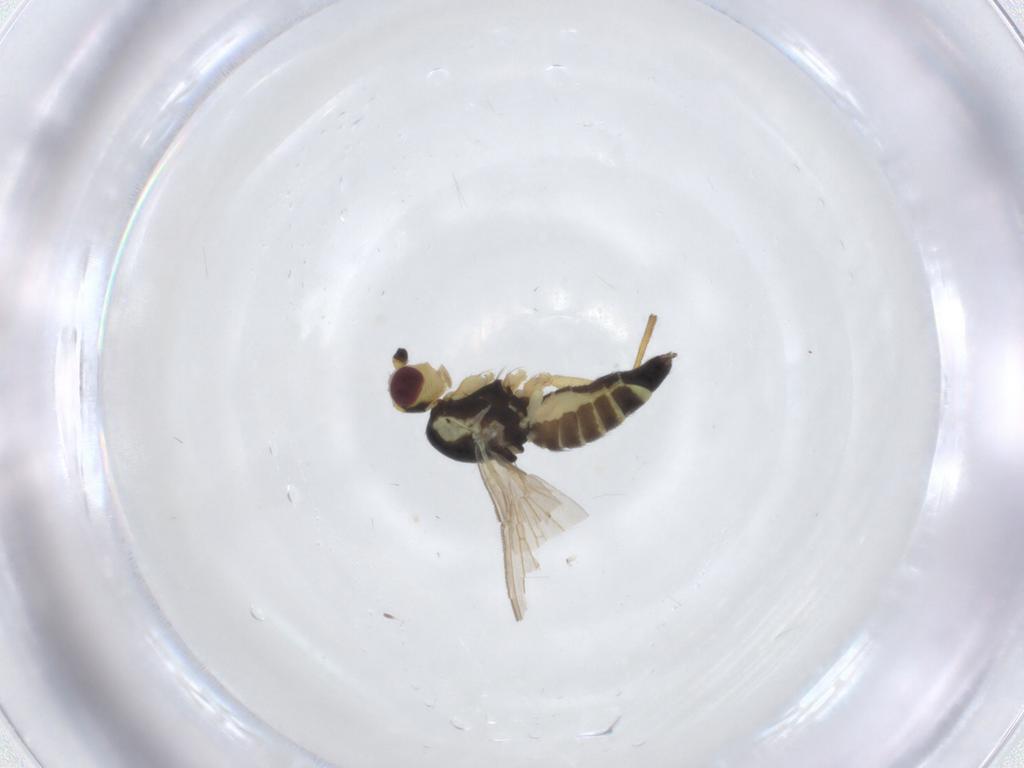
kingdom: Animalia
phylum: Arthropoda
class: Insecta
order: Diptera
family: Agromyzidae
